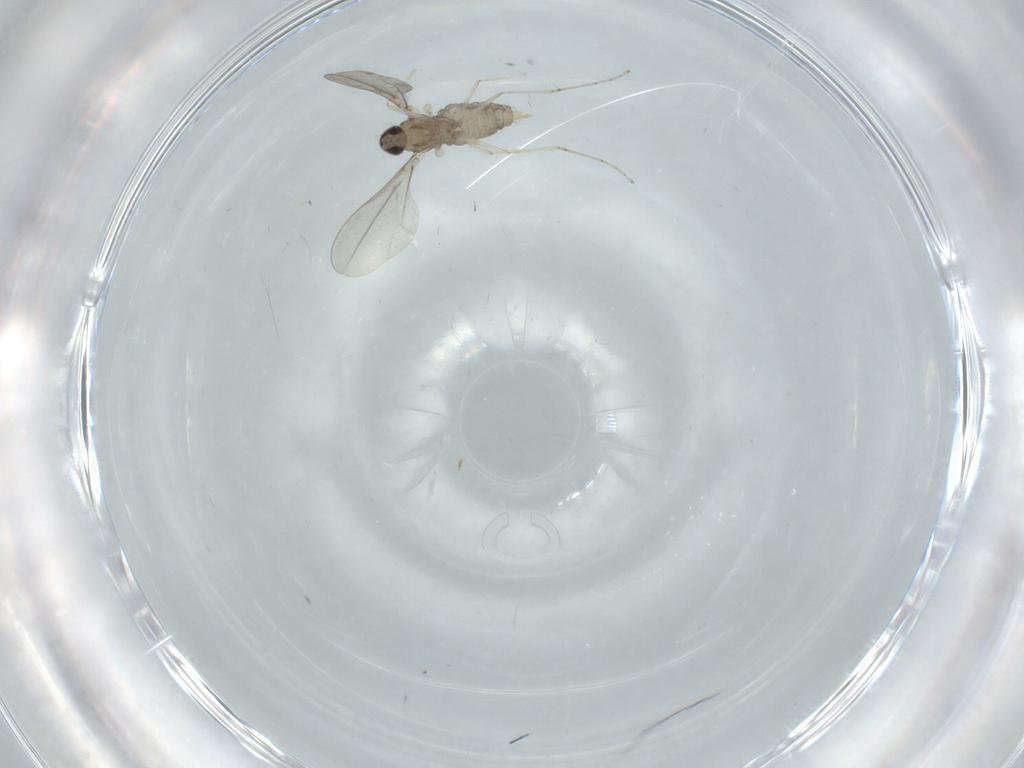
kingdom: Animalia
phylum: Arthropoda
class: Insecta
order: Diptera
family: Cecidomyiidae
